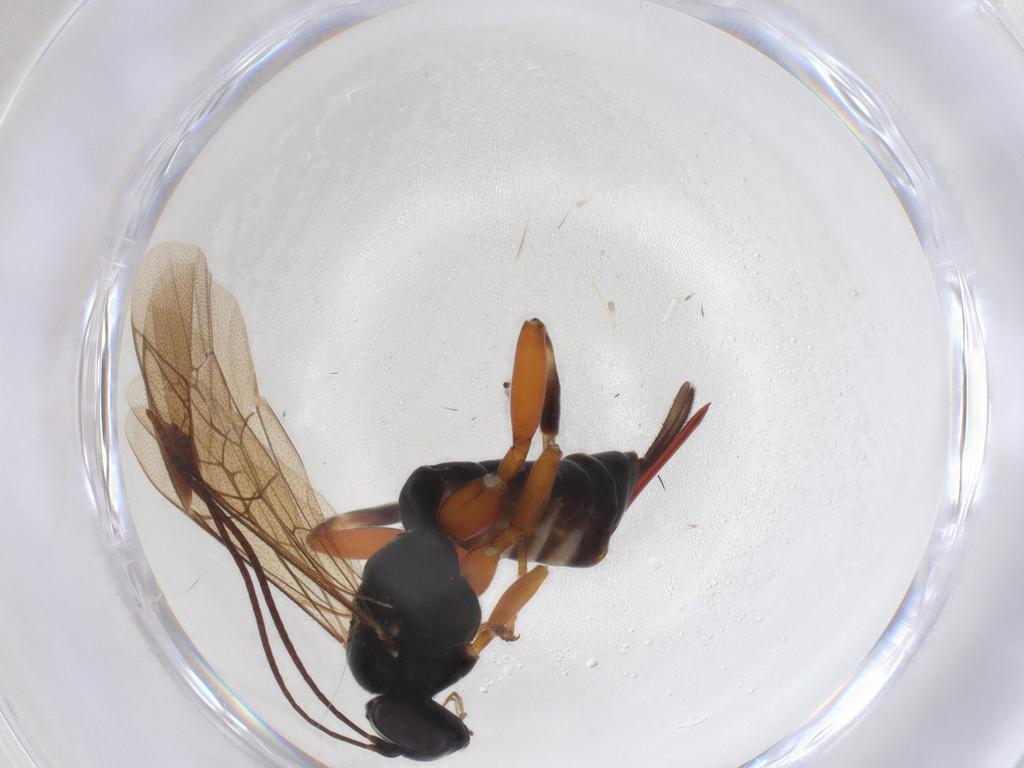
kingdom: Animalia
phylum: Arthropoda
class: Insecta
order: Hymenoptera
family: Ichneumonidae
